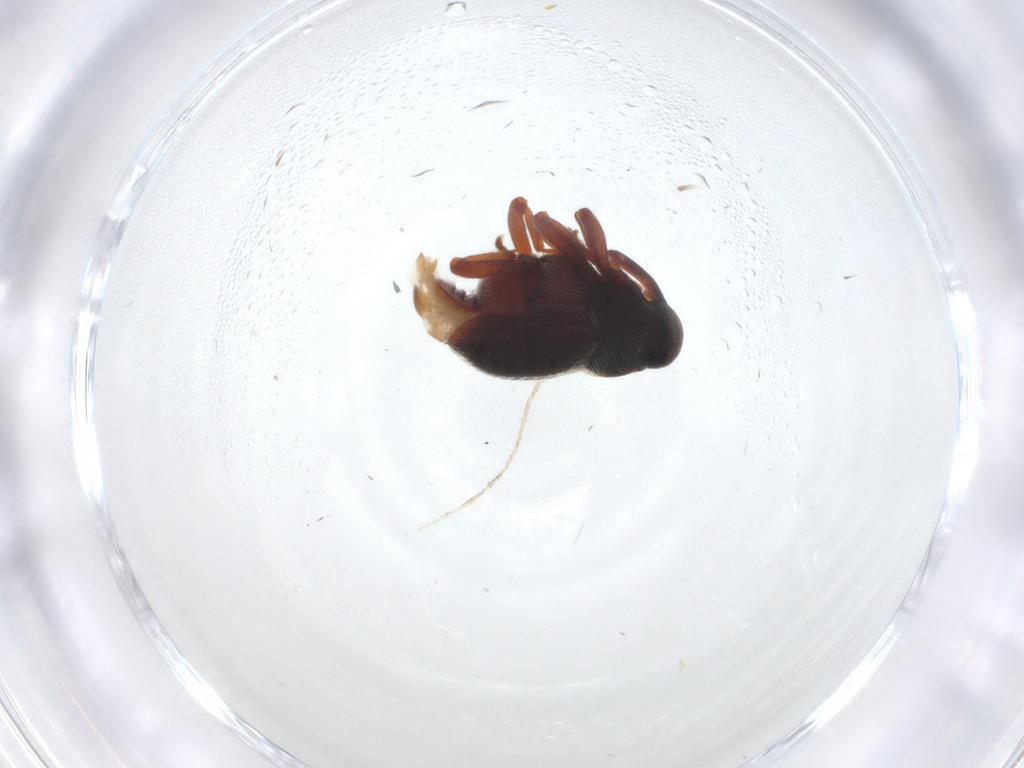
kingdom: Animalia
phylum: Arthropoda
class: Insecta
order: Coleoptera
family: Curculionidae
